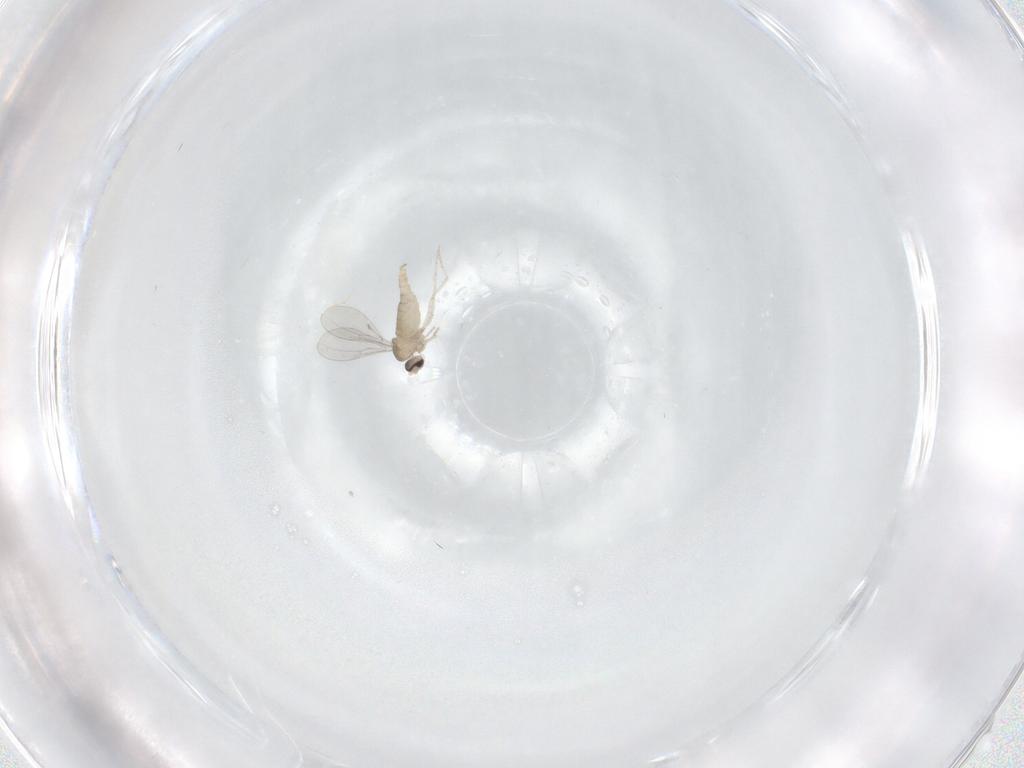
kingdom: Animalia
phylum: Arthropoda
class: Insecta
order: Diptera
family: Cecidomyiidae
